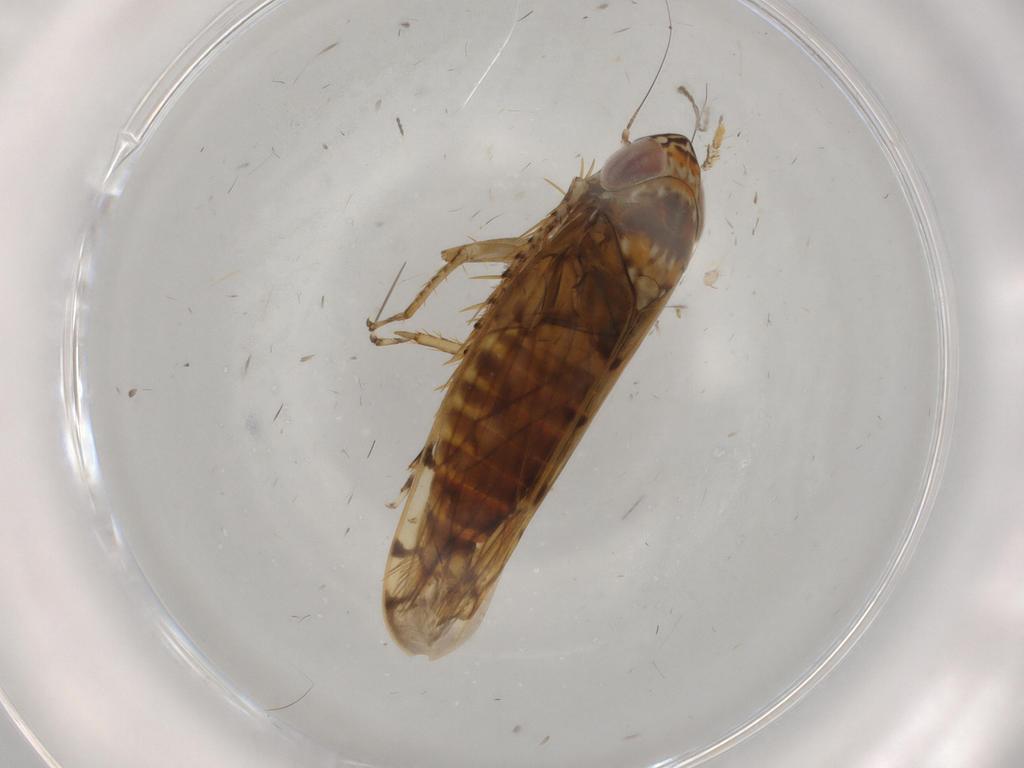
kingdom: Animalia
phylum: Arthropoda
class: Insecta
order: Hemiptera
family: Cicadellidae
